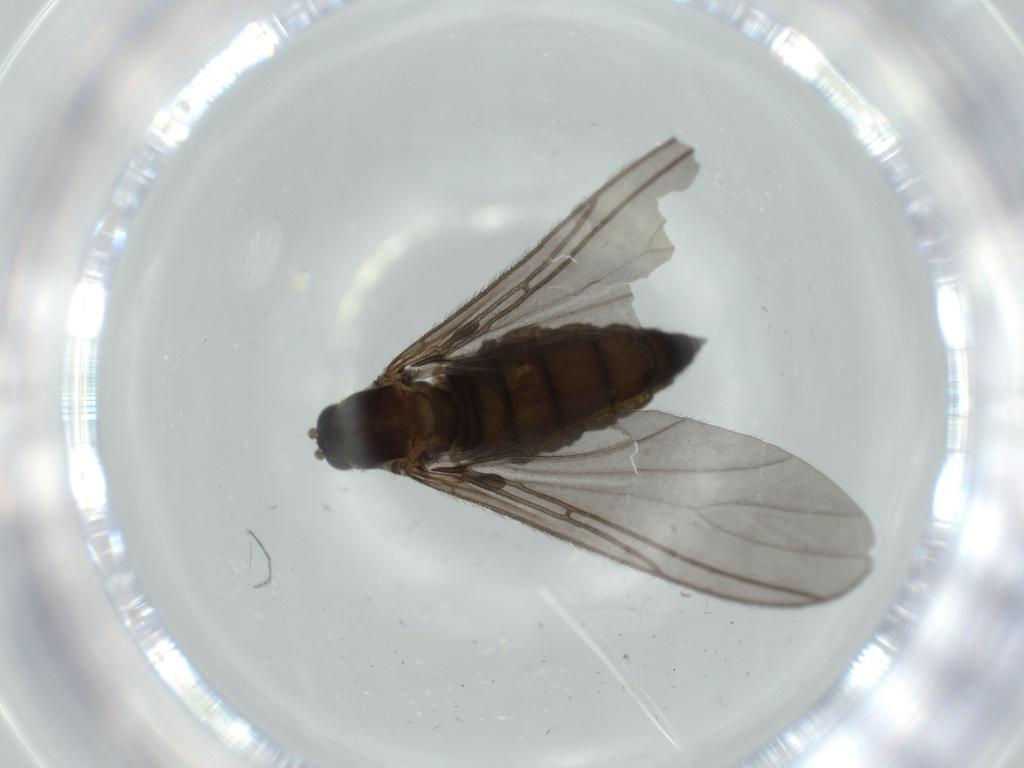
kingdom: Animalia
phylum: Arthropoda
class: Insecta
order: Diptera
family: Sciaridae
